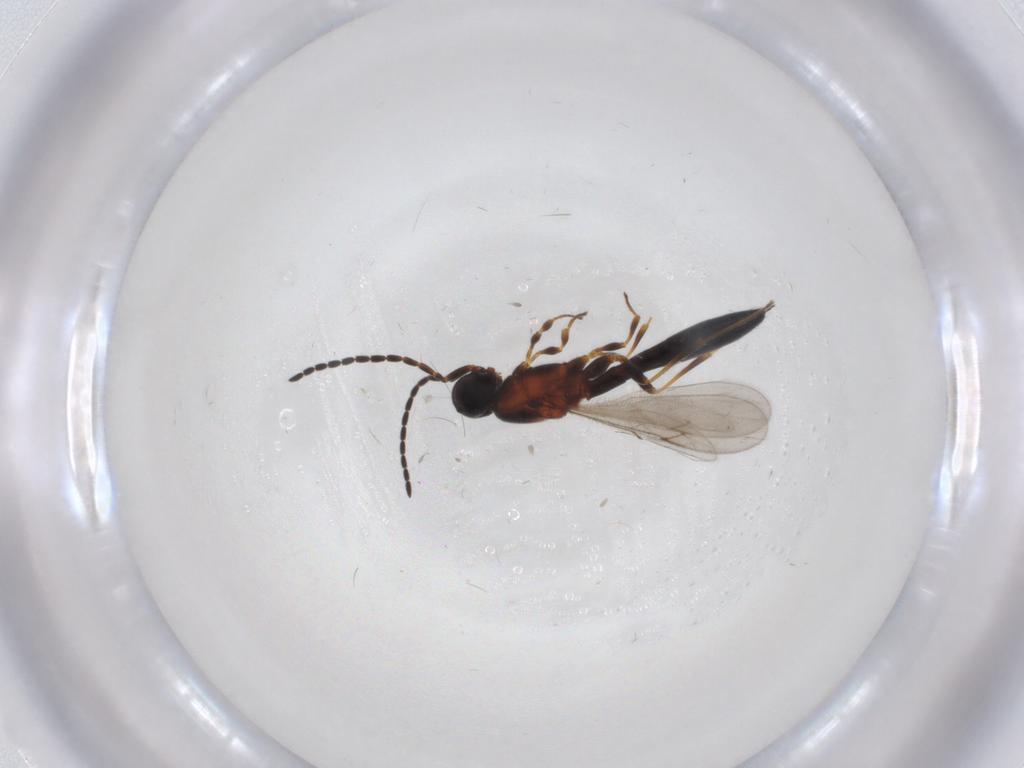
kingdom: Animalia
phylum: Arthropoda
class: Insecta
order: Hymenoptera
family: Scelionidae
